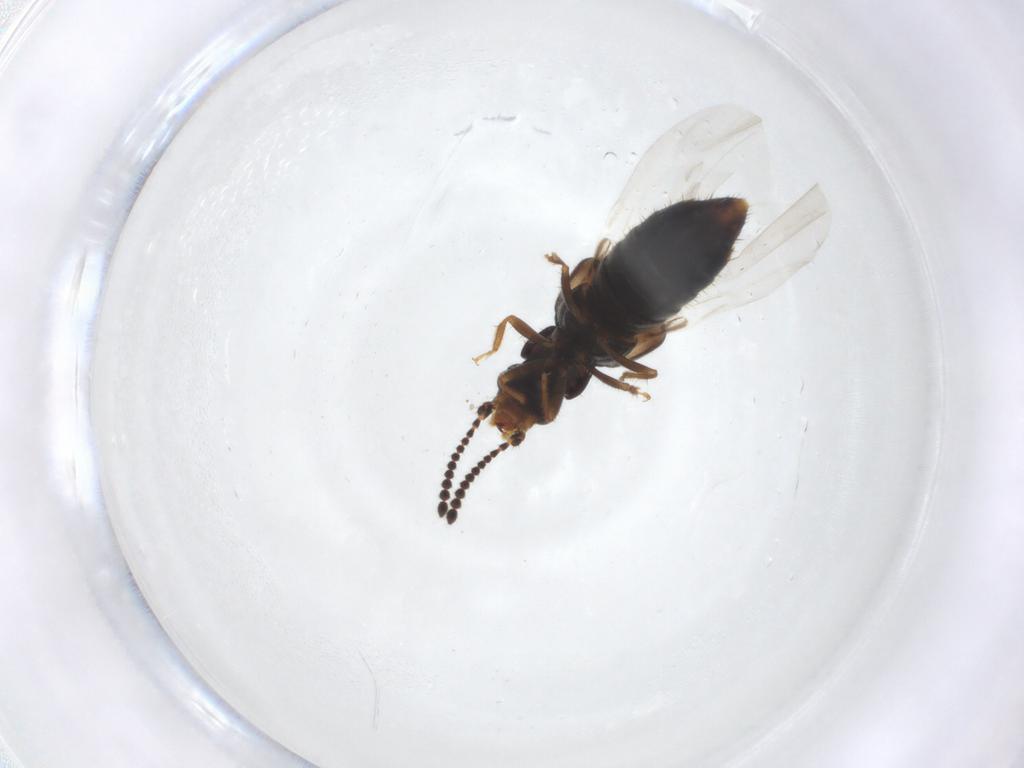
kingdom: Animalia
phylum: Arthropoda
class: Insecta
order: Coleoptera
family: Staphylinidae
